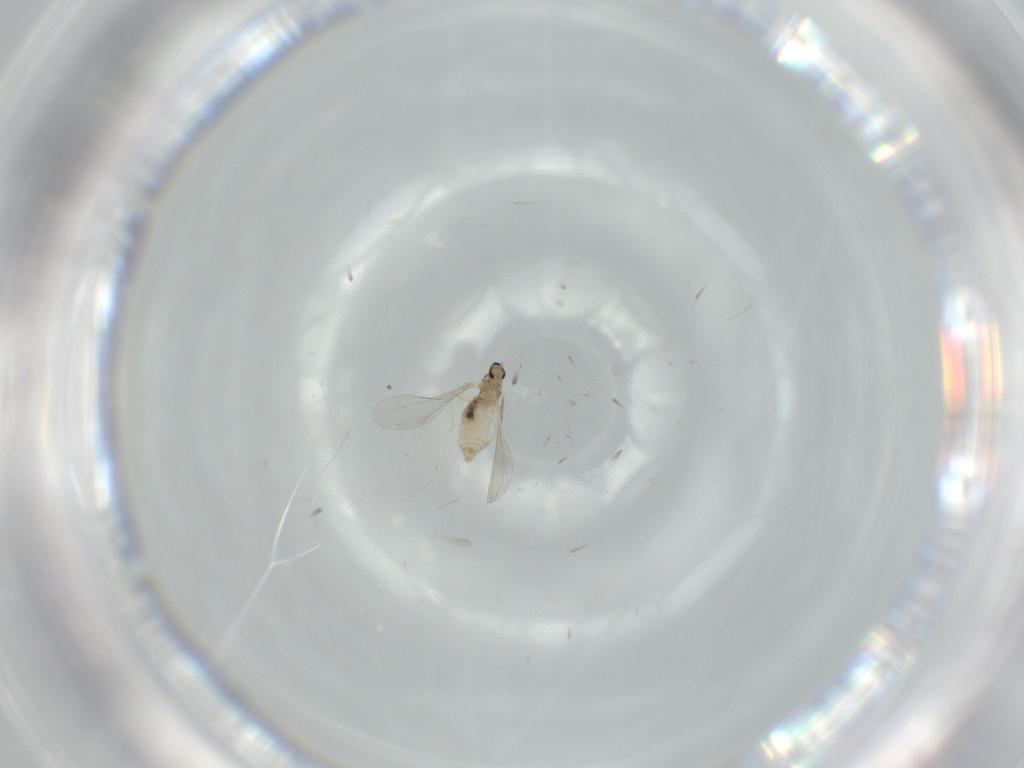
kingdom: Animalia
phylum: Arthropoda
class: Insecta
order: Diptera
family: Cecidomyiidae
